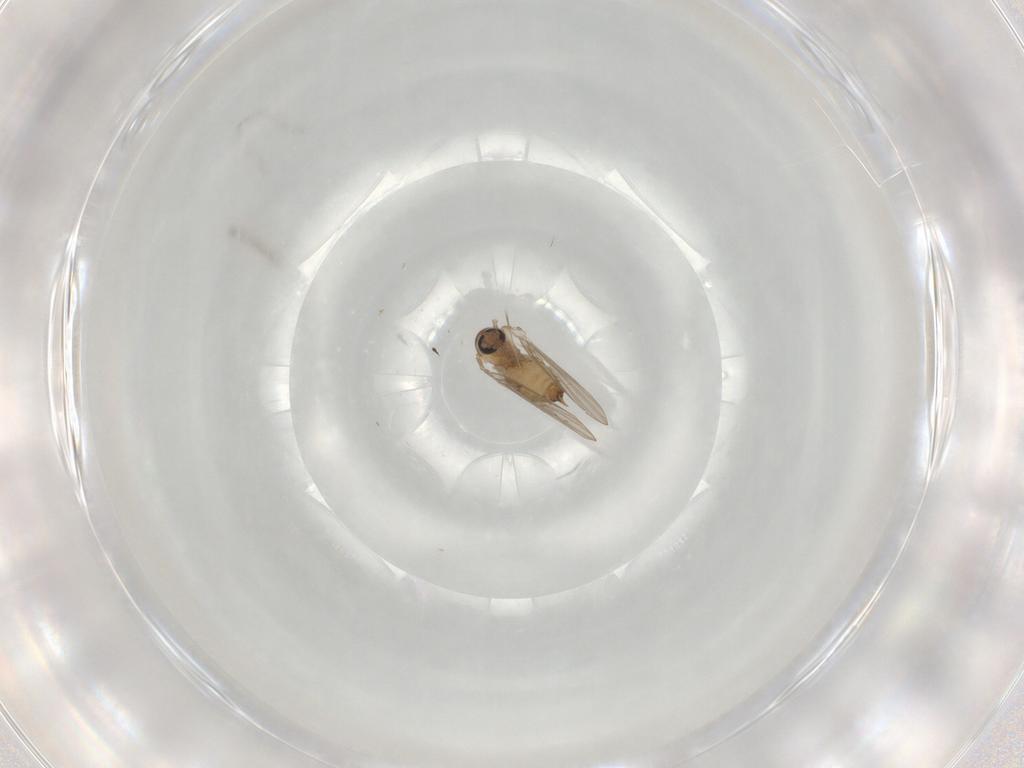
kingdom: Animalia
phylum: Arthropoda
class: Insecta
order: Diptera
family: Psychodidae
